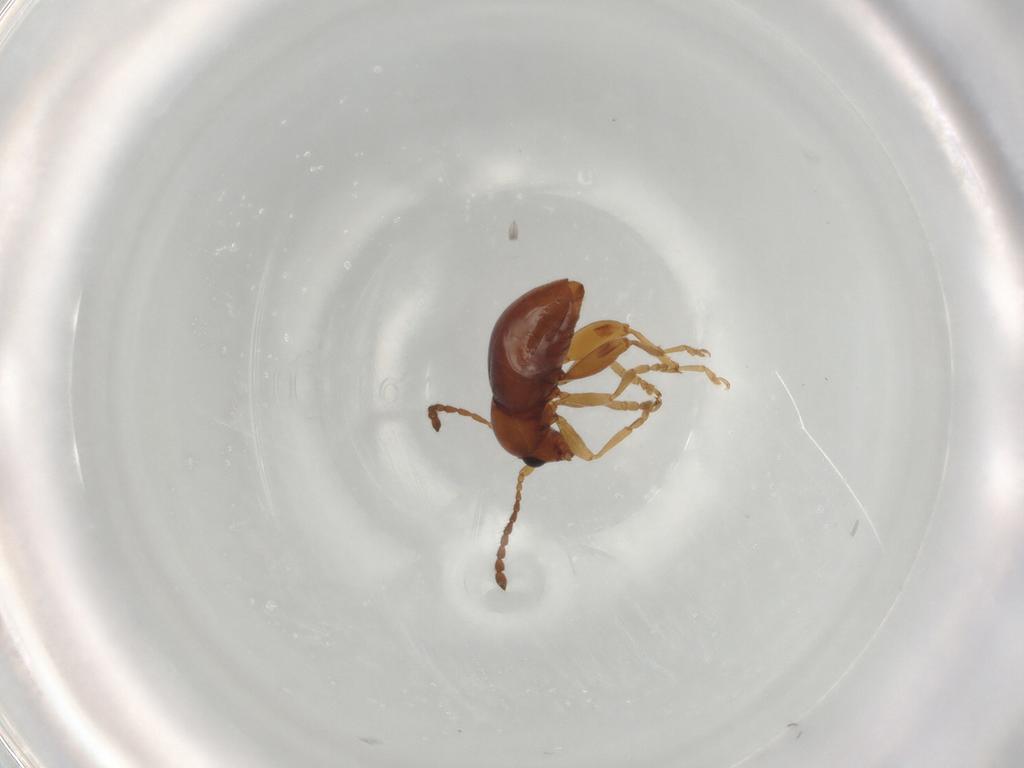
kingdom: Animalia
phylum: Arthropoda
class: Insecta
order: Coleoptera
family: Chrysomelidae
